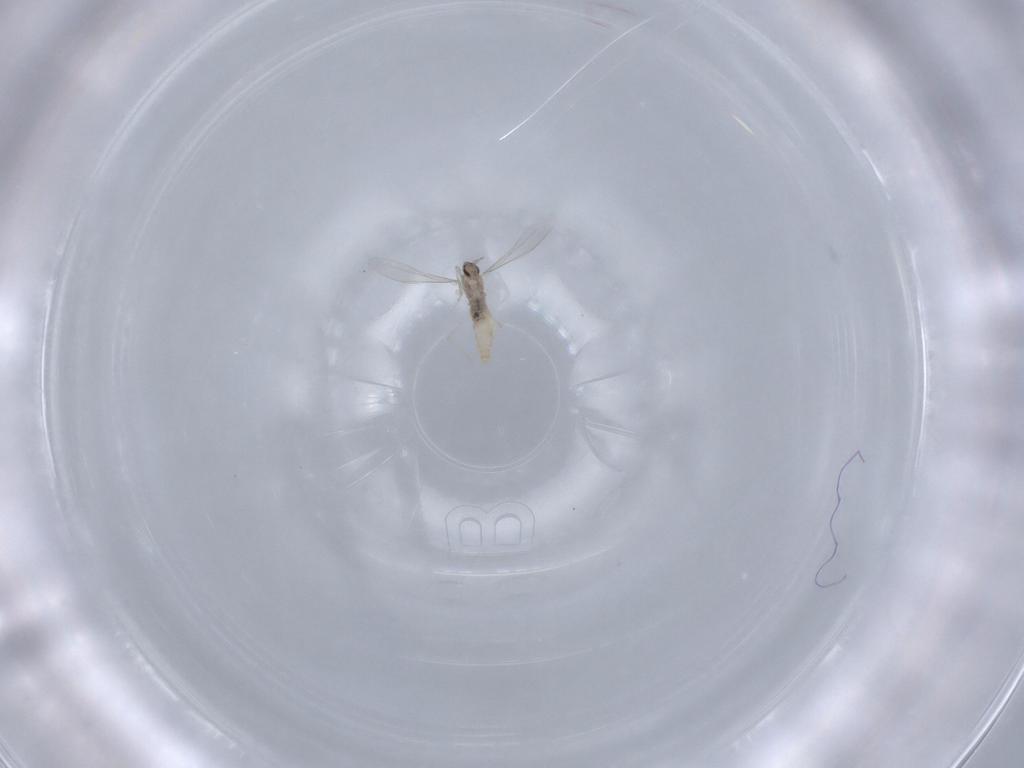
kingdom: Animalia
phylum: Arthropoda
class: Insecta
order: Diptera
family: Cecidomyiidae
